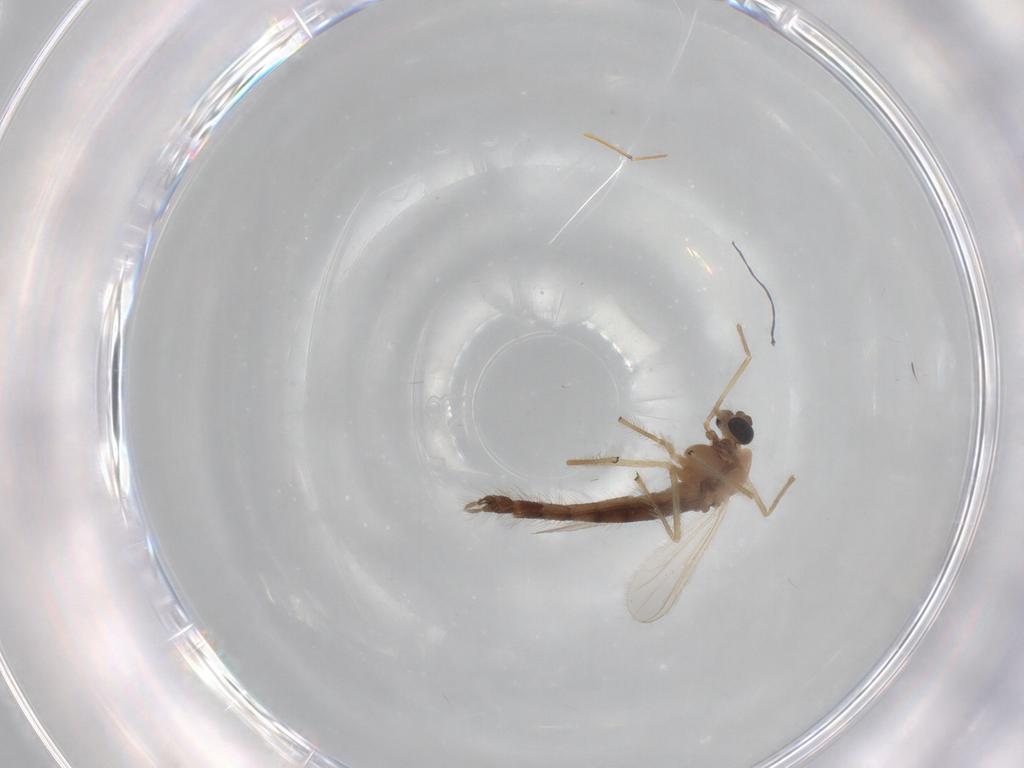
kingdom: Animalia
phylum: Arthropoda
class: Insecta
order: Diptera
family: Chironomidae
